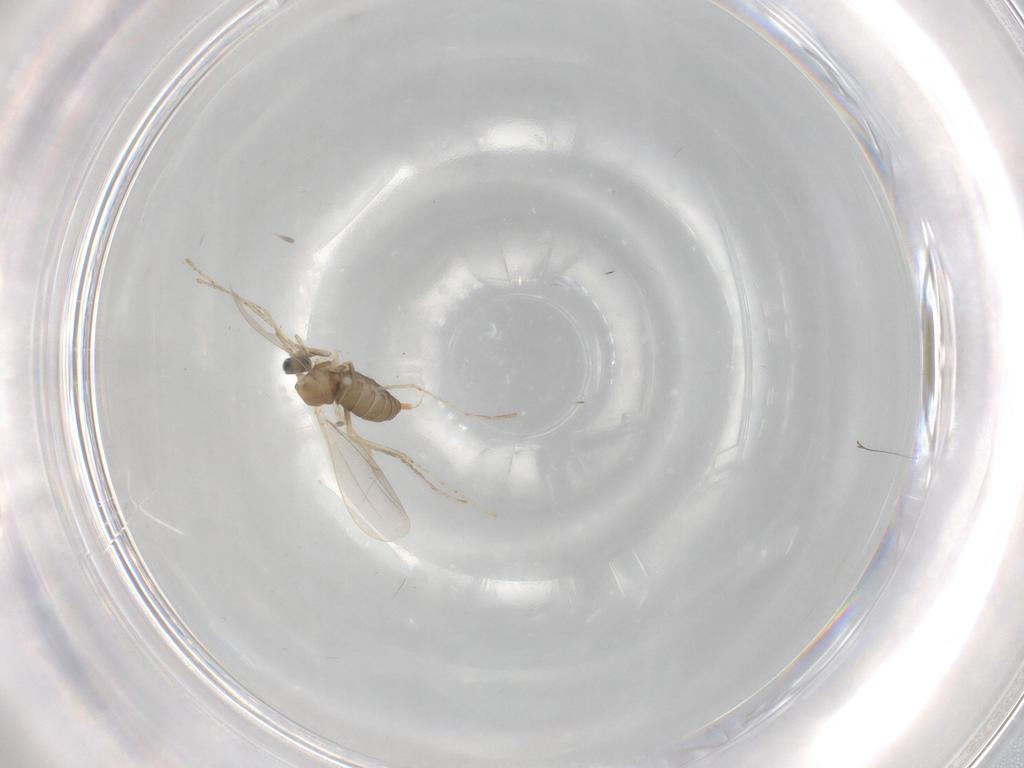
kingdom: Animalia
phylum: Arthropoda
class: Insecta
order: Diptera
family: Cecidomyiidae
